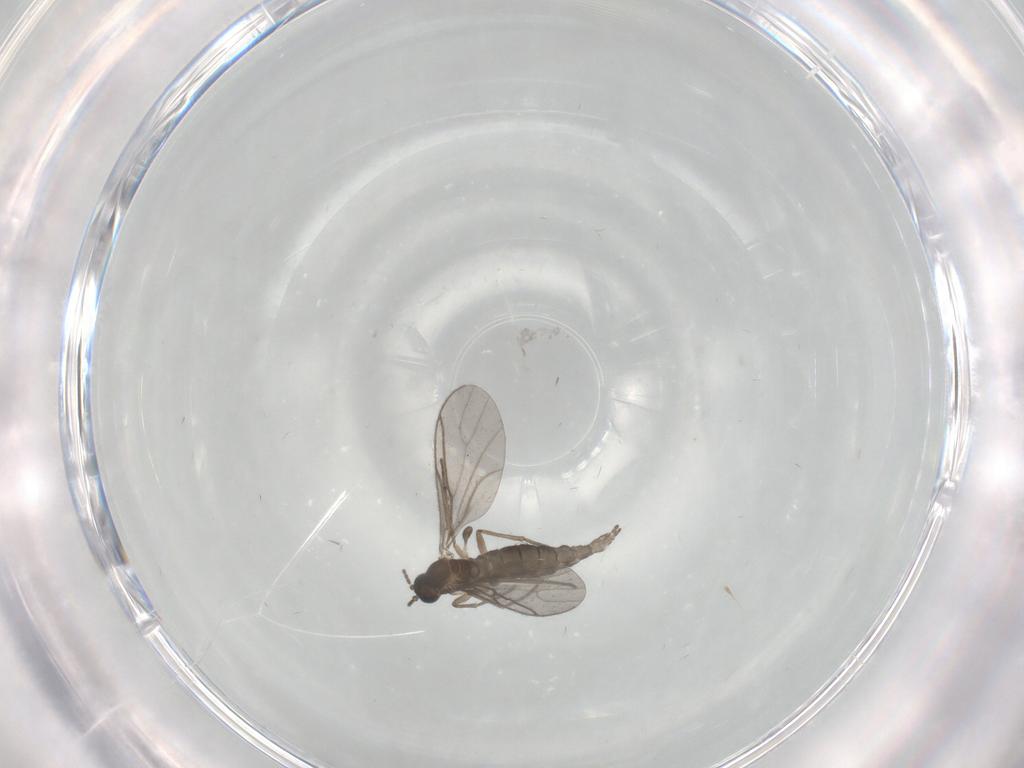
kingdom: Animalia
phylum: Arthropoda
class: Insecta
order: Diptera
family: Sciaridae
